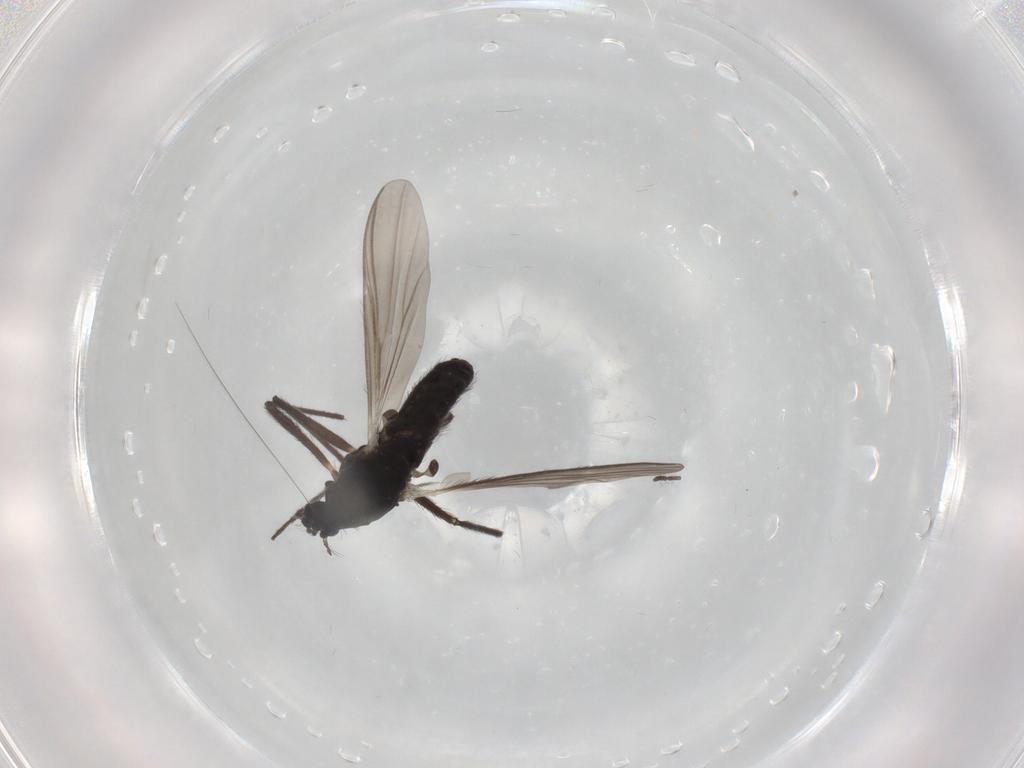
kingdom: Animalia
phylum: Arthropoda
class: Insecta
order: Diptera
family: Chironomidae
